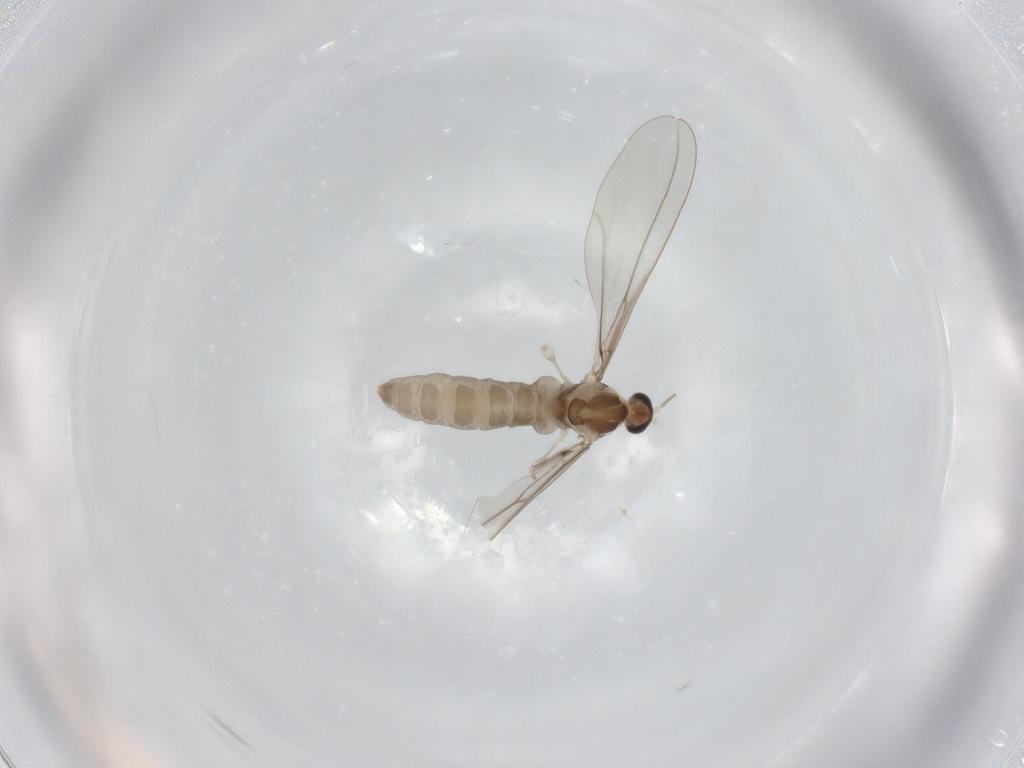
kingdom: Animalia
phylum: Arthropoda
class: Insecta
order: Diptera
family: Cecidomyiidae
